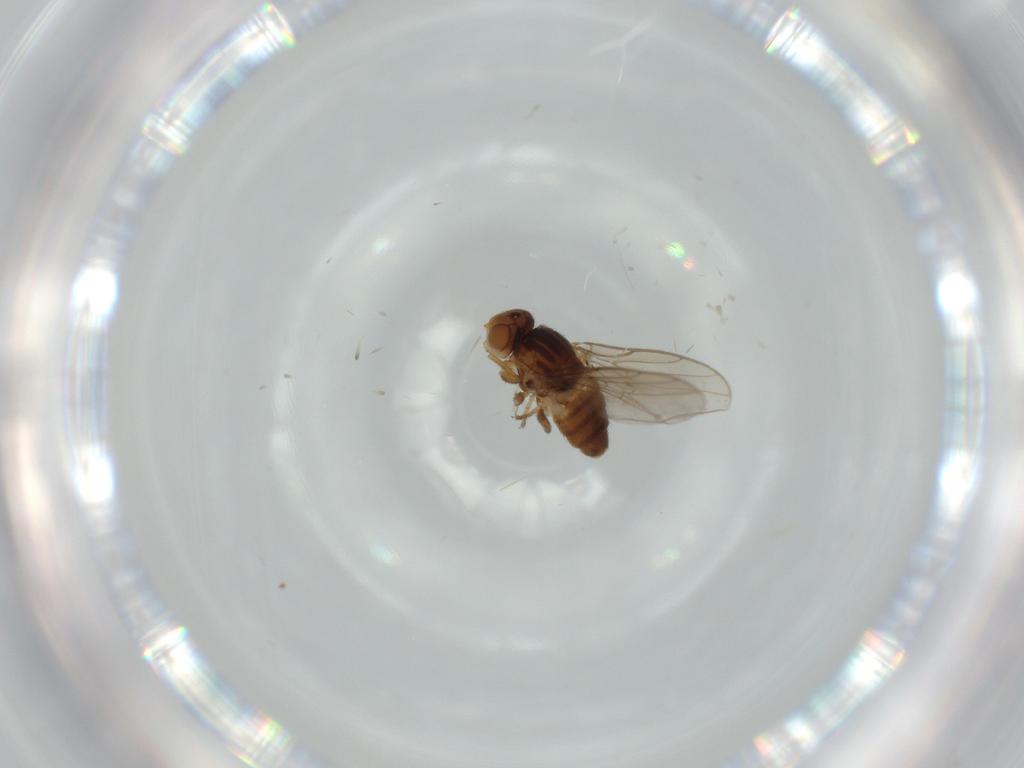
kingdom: Animalia
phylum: Arthropoda
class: Insecta
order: Diptera
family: Chloropidae
